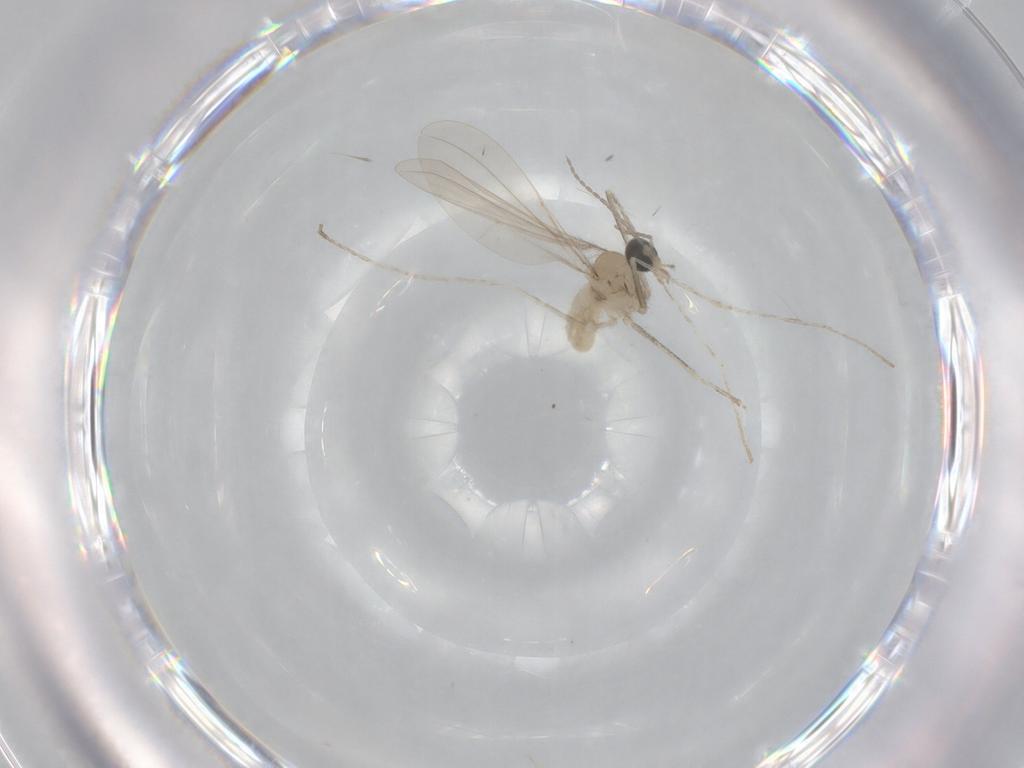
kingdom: Animalia
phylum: Arthropoda
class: Insecta
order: Diptera
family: Cecidomyiidae
